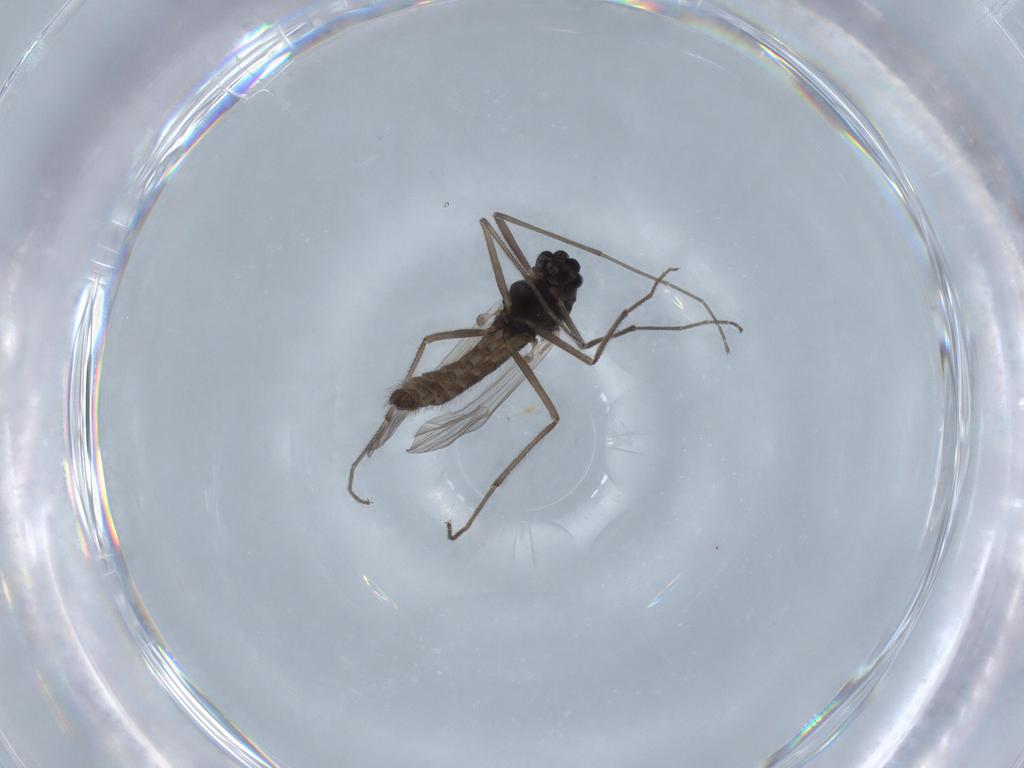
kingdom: Animalia
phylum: Arthropoda
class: Insecta
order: Diptera
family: Chironomidae
